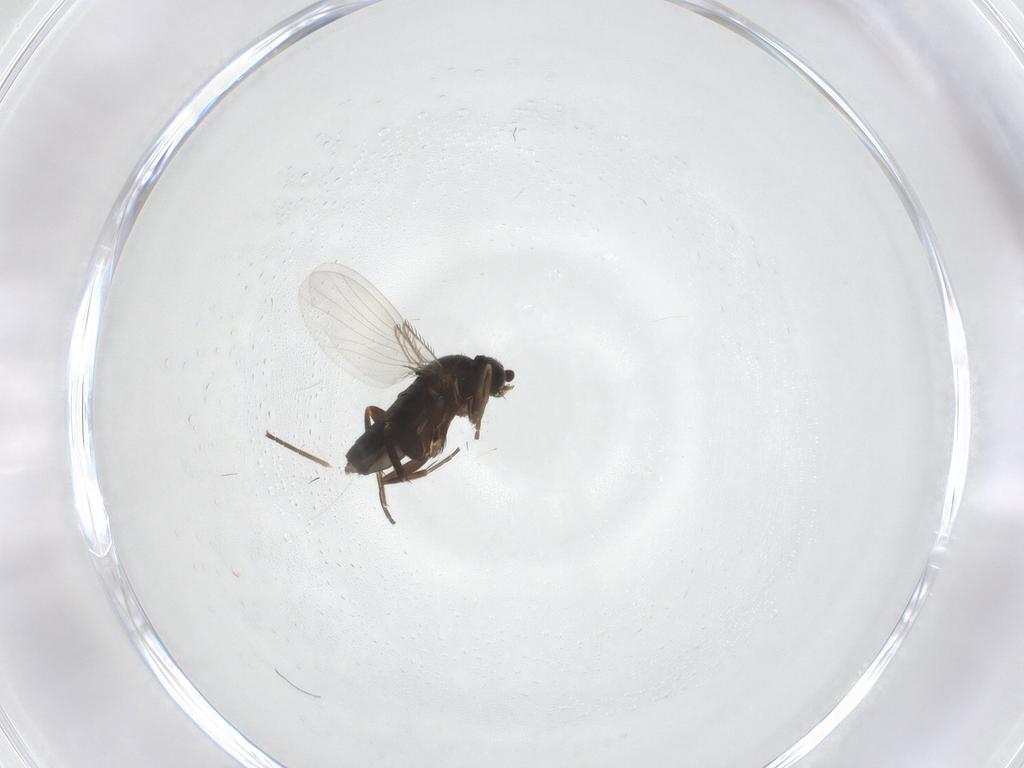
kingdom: Animalia
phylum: Arthropoda
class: Insecta
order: Diptera
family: Phoridae
